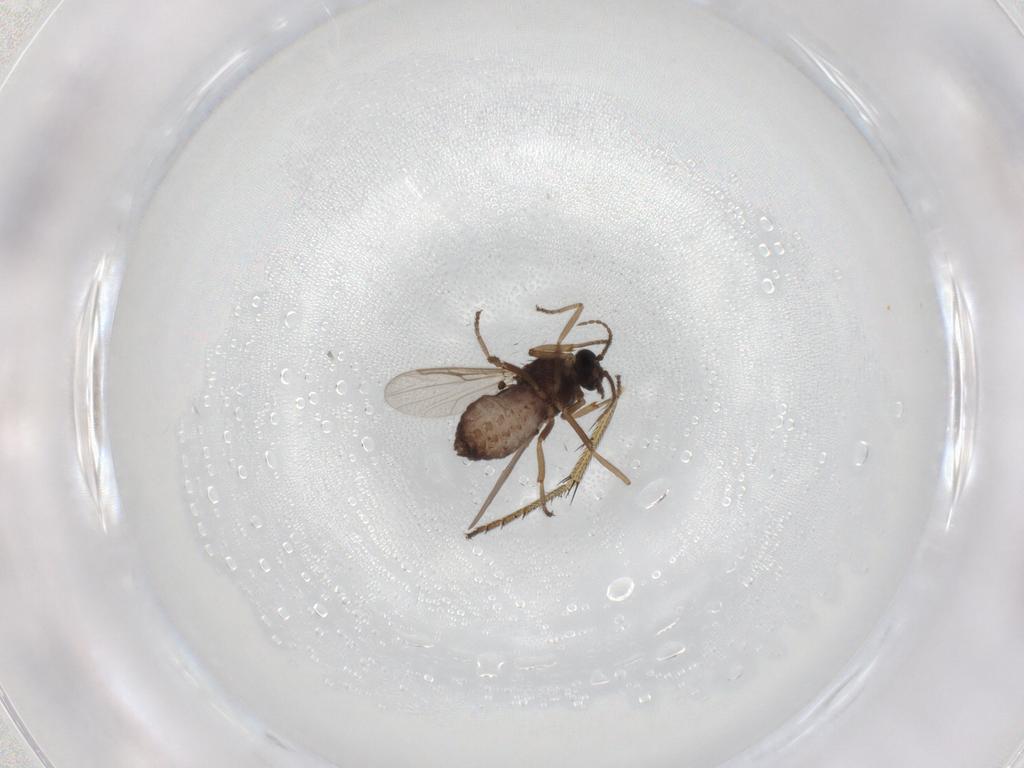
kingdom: Animalia
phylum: Arthropoda
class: Insecta
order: Diptera
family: Ceratopogonidae
